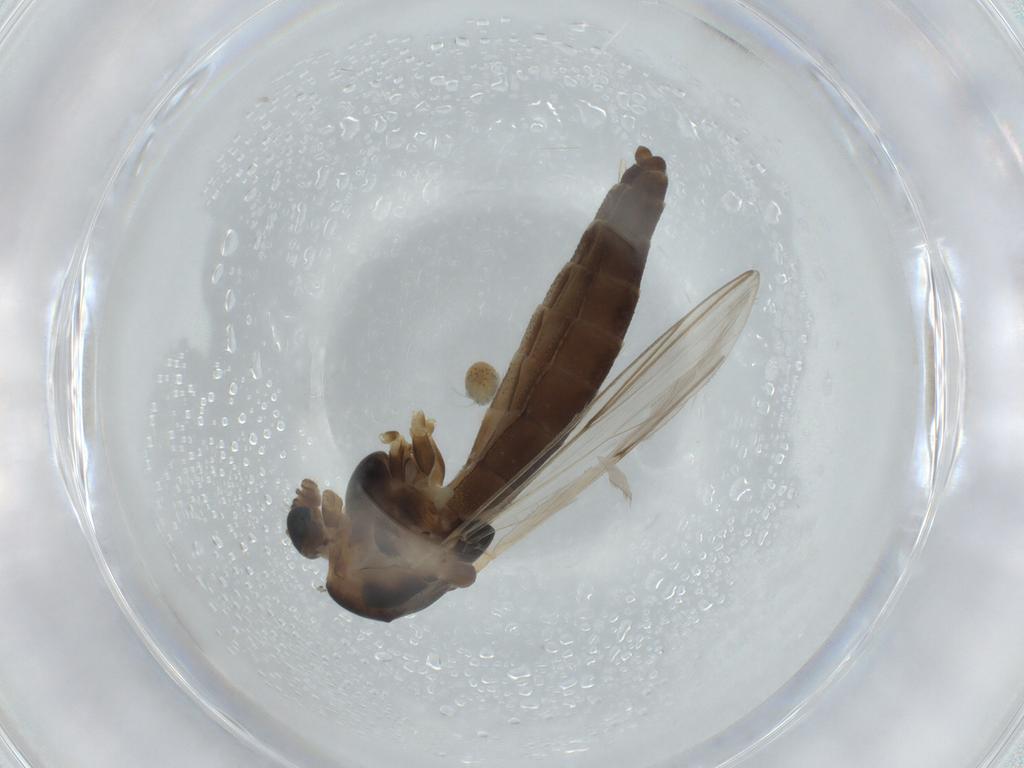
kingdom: Animalia
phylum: Arthropoda
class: Insecta
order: Diptera
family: Chironomidae
